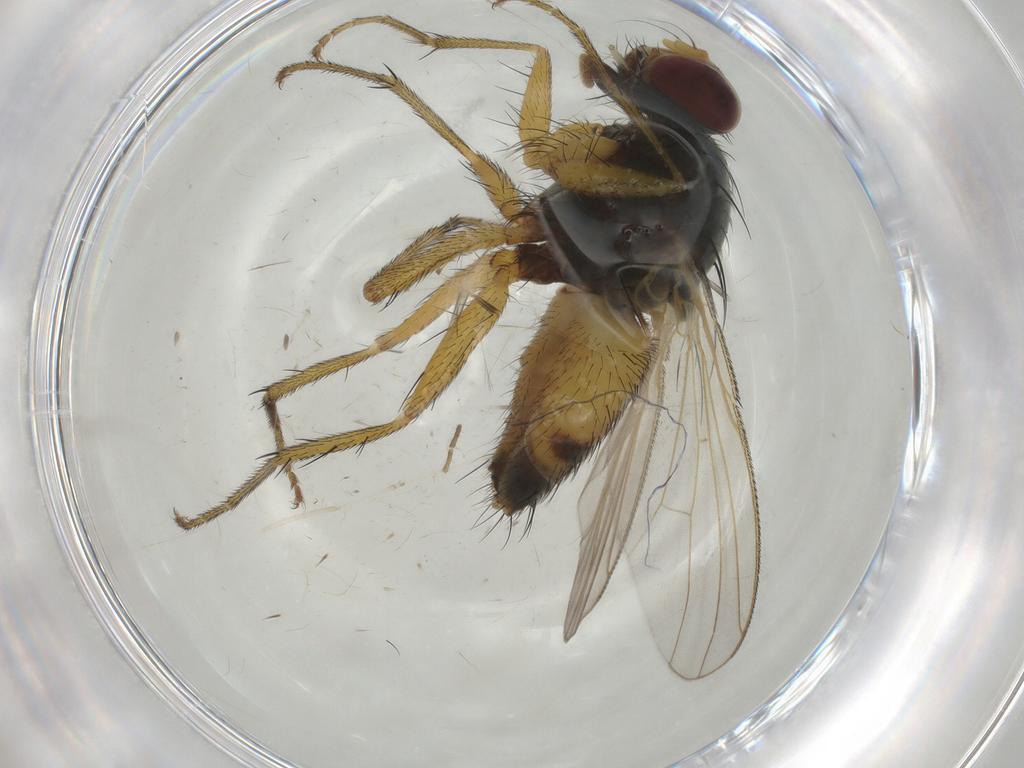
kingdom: Animalia
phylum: Arthropoda
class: Insecta
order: Diptera
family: Muscidae
